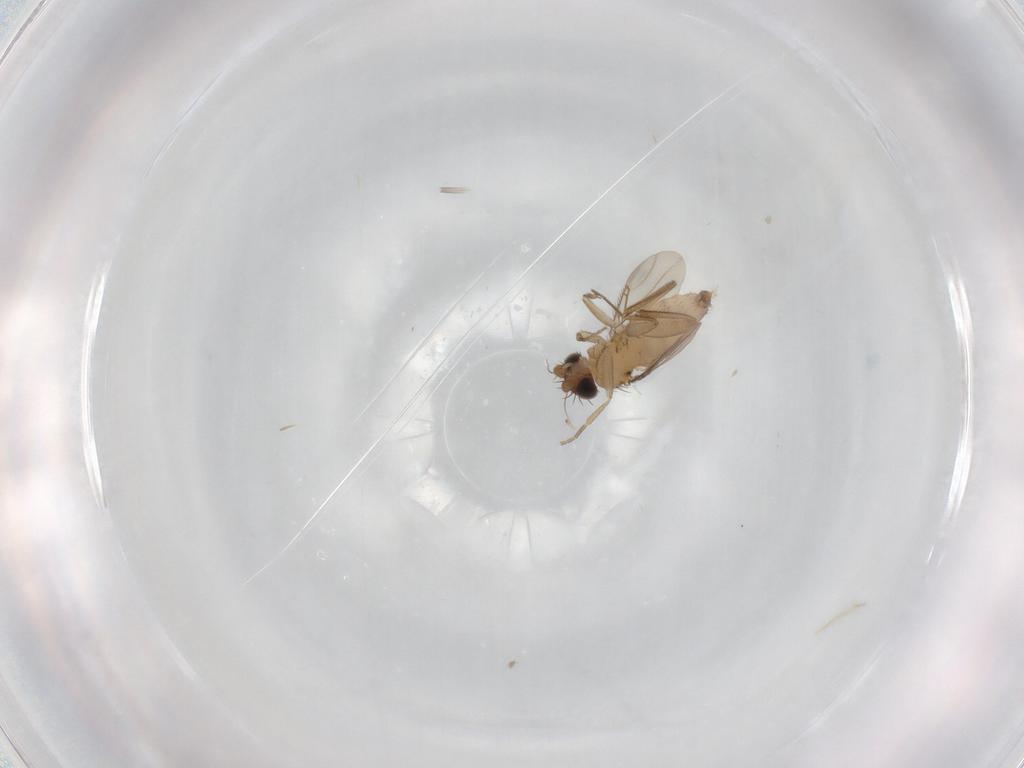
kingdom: Animalia
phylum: Arthropoda
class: Insecta
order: Diptera
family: Phoridae
